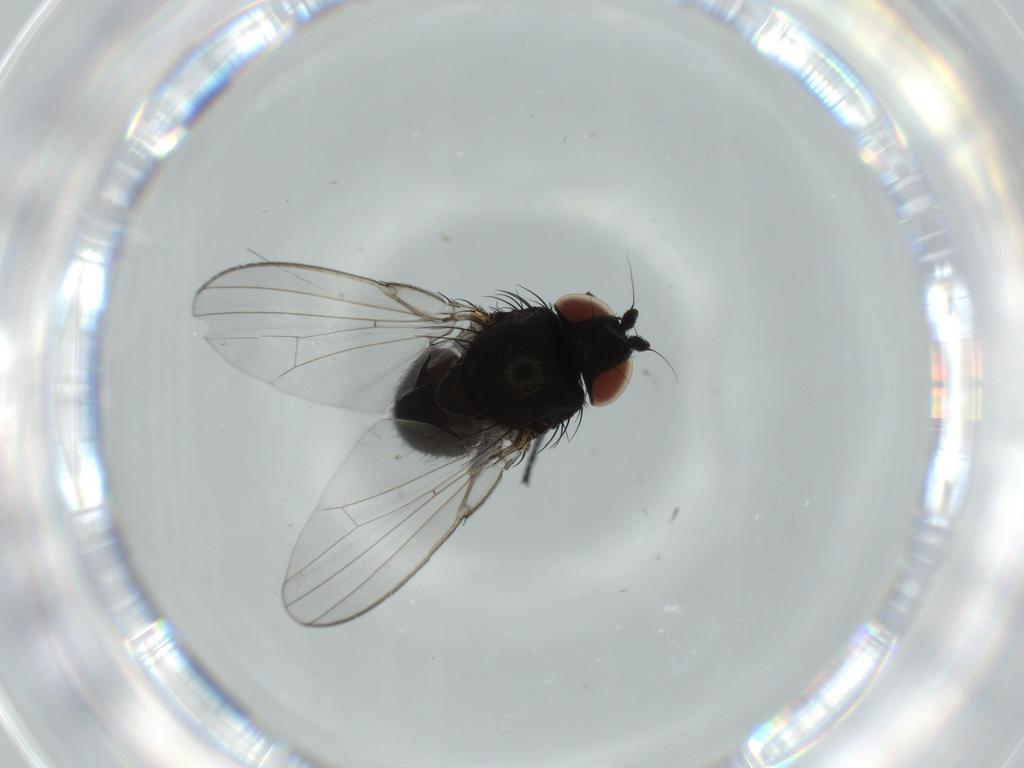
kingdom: Animalia
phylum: Arthropoda
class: Insecta
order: Diptera
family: Milichiidae
